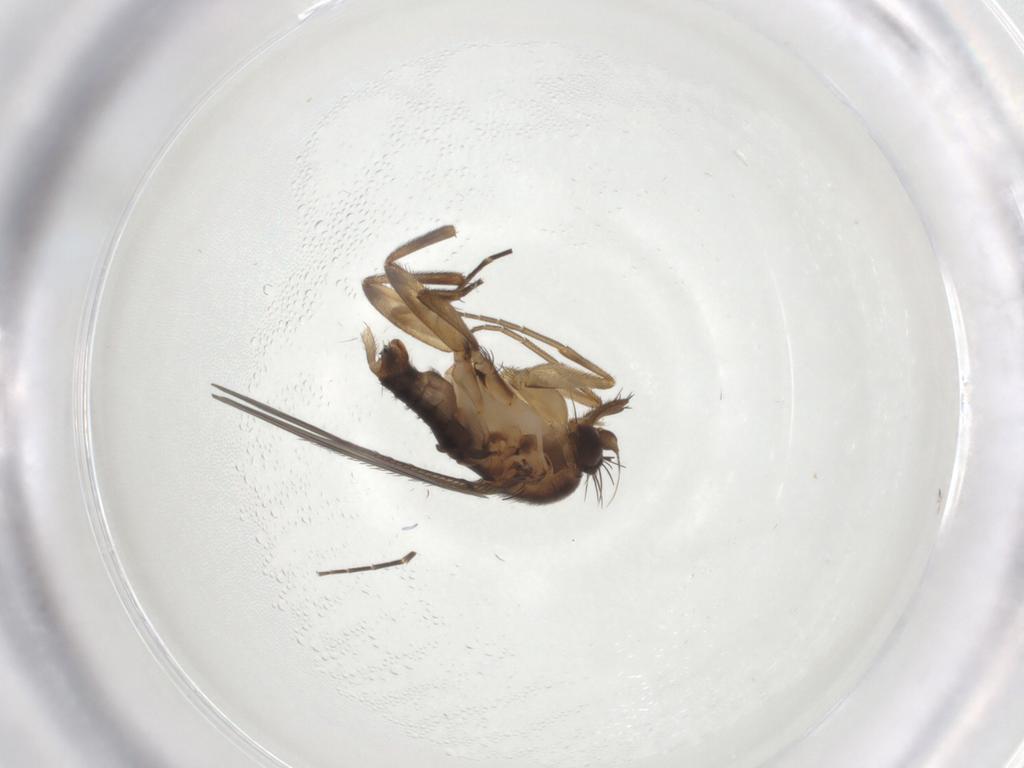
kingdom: Animalia
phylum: Arthropoda
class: Insecta
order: Diptera
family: Phoridae
